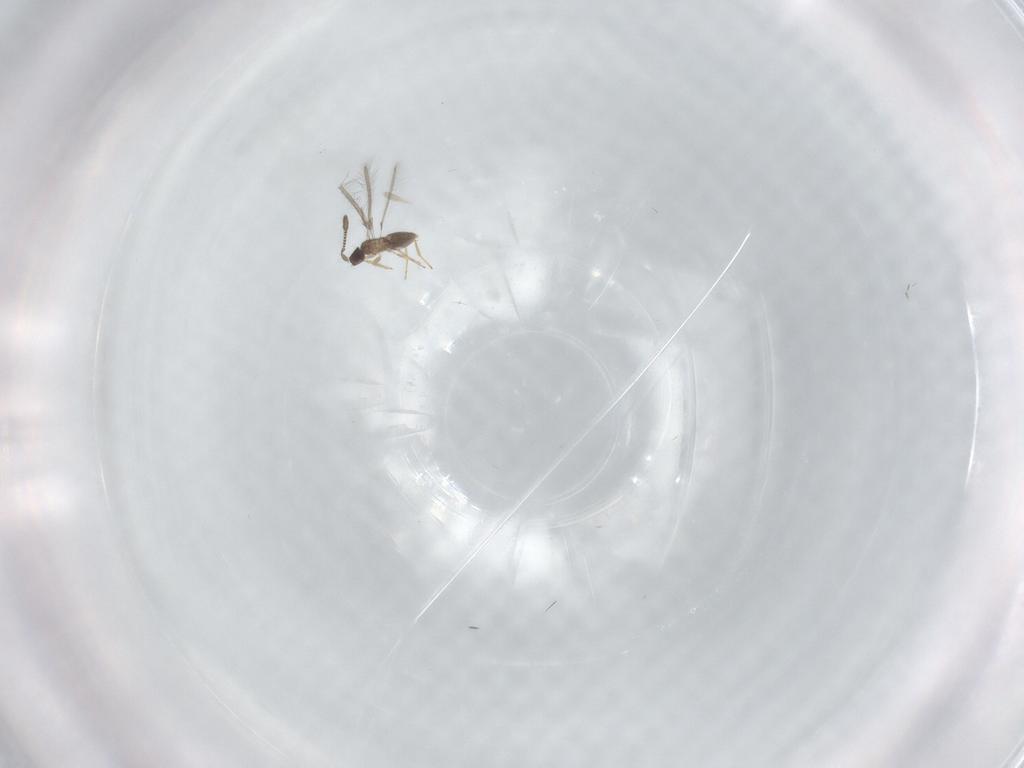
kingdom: Animalia
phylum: Arthropoda
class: Insecta
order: Hymenoptera
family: Mymaridae
